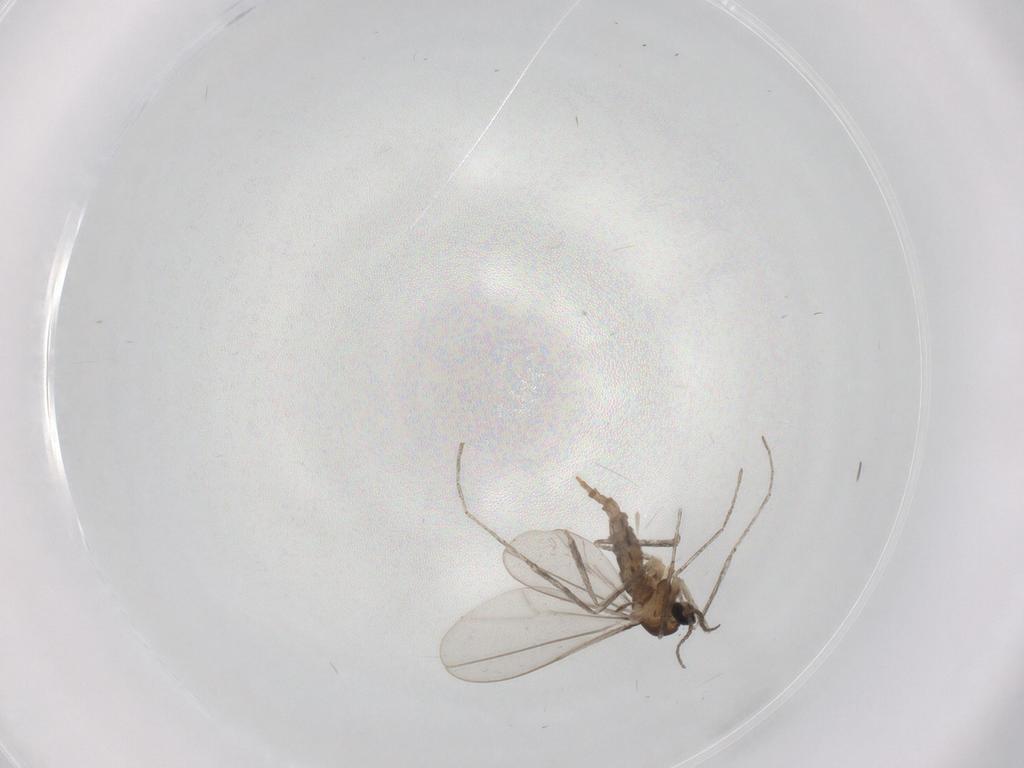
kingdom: Animalia
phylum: Arthropoda
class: Insecta
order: Diptera
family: Cecidomyiidae
